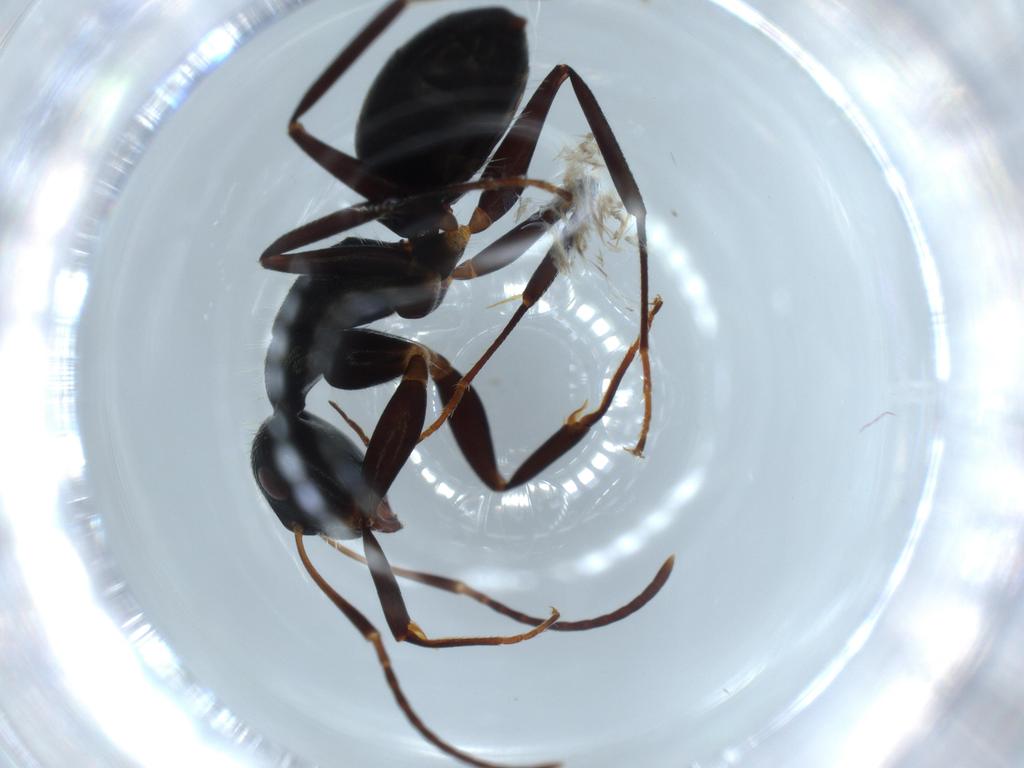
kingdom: Animalia
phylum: Arthropoda
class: Insecta
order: Hymenoptera
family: Formicidae
